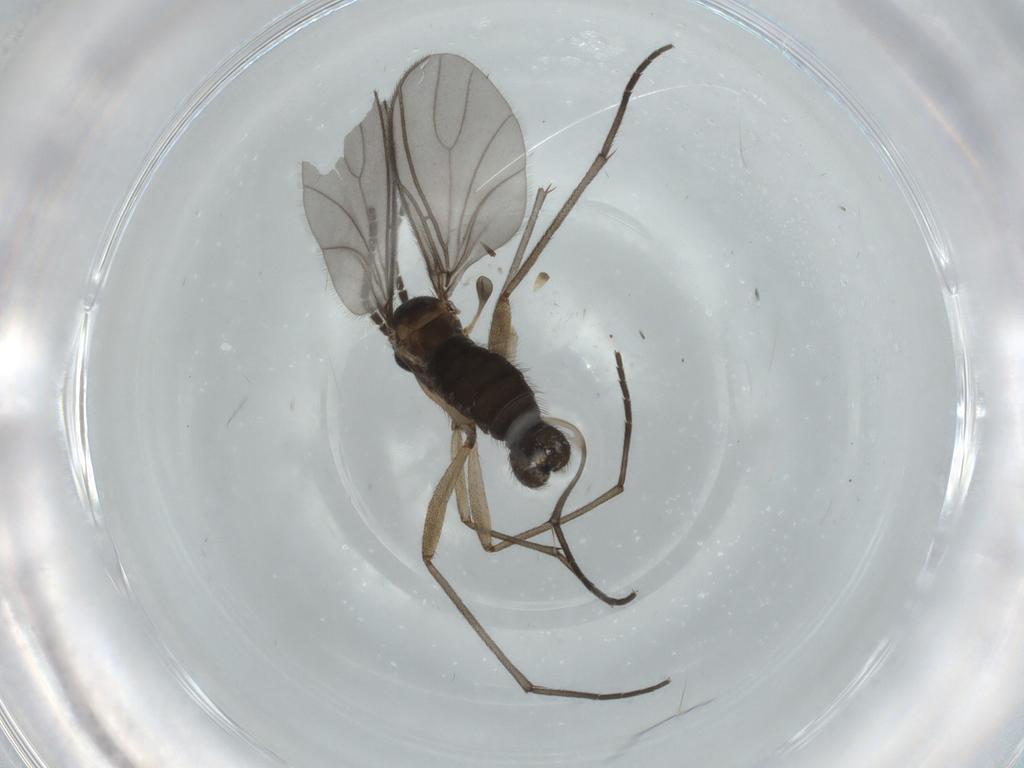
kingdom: Animalia
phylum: Arthropoda
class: Insecta
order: Diptera
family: Sciaridae
